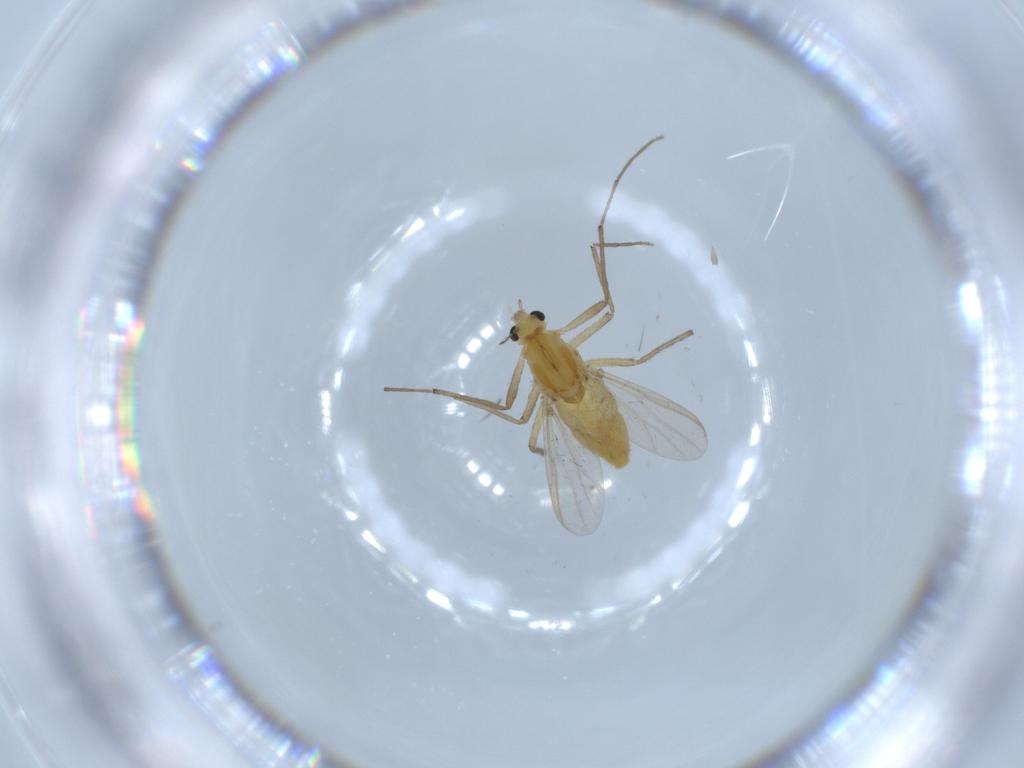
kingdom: Animalia
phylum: Arthropoda
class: Insecta
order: Diptera
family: Chironomidae
